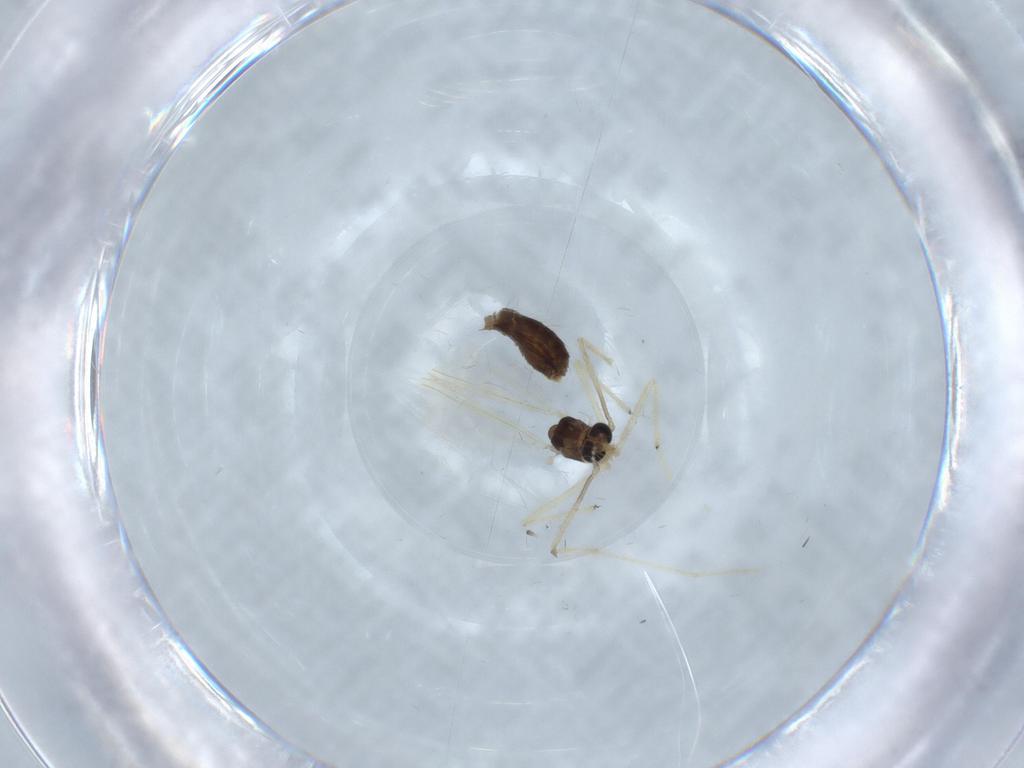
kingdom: Animalia
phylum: Arthropoda
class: Insecta
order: Diptera
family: Chironomidae
